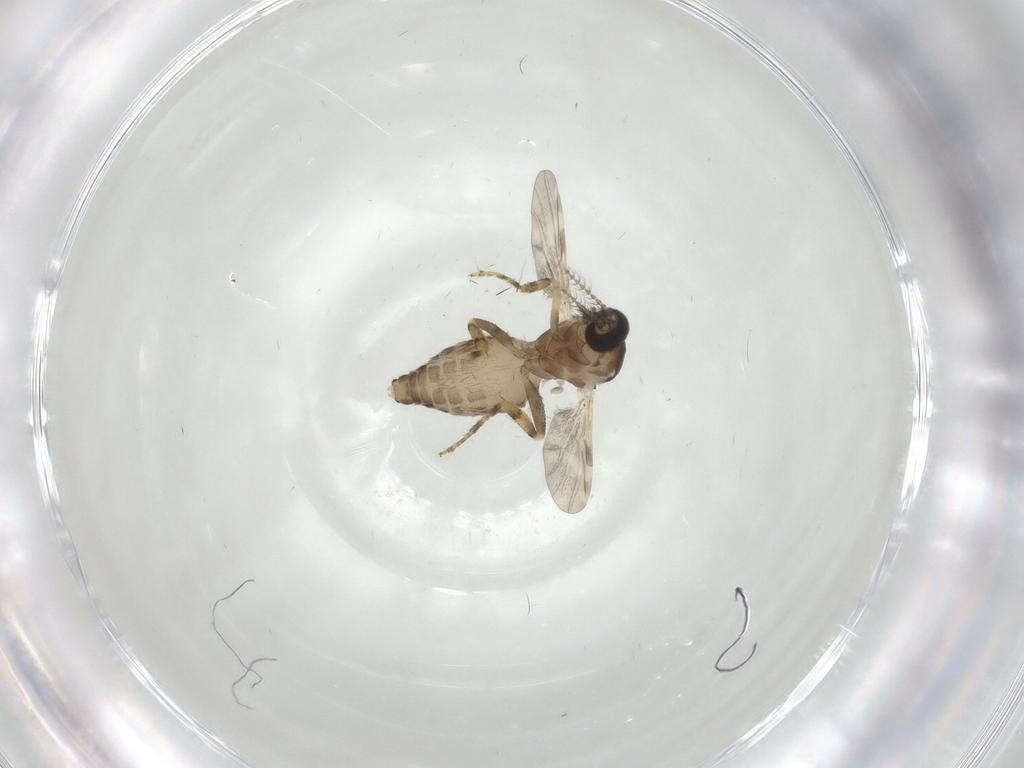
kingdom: Animalia
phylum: Arthropoda
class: Insecta
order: Diptera
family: Ceratopogonidae
